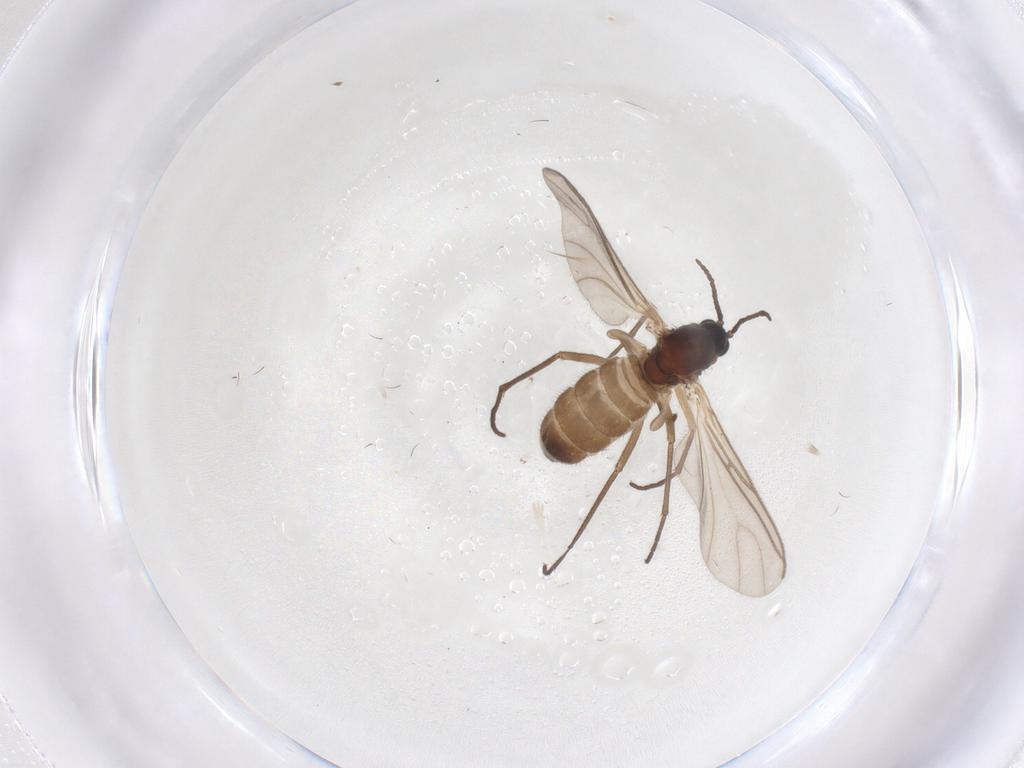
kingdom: Animalia
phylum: Arthropoda
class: Insecta
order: Diptera
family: Sciaridae
